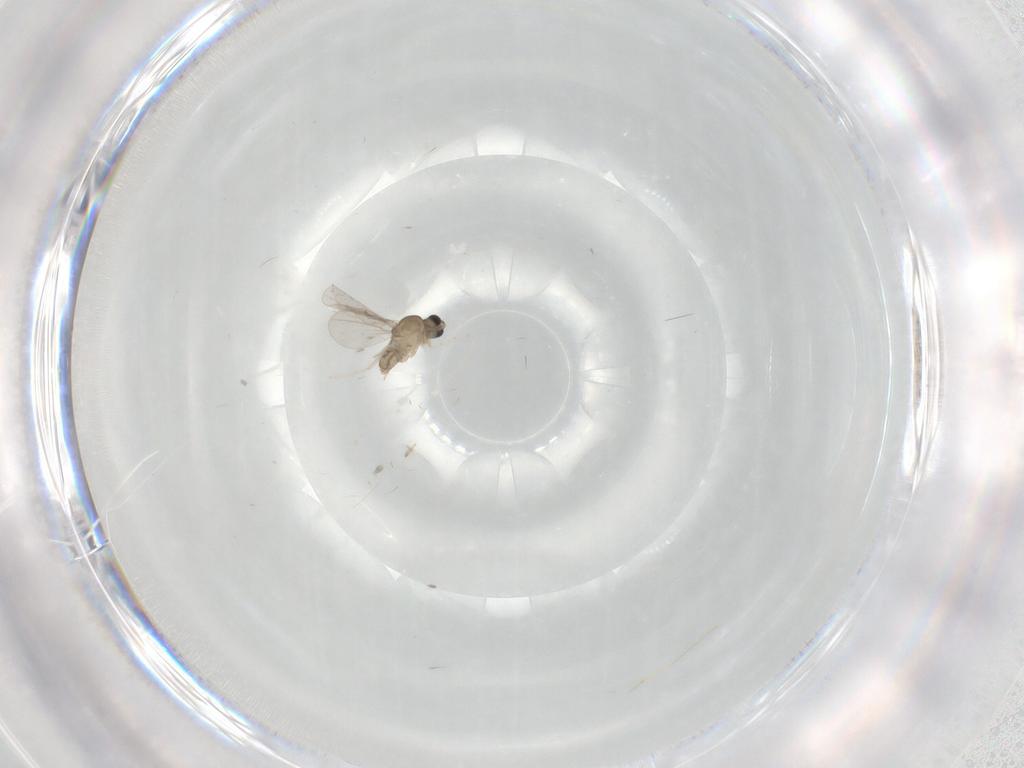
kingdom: Animalia
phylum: Arthropoda
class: Insecta
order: Diptera
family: Cecidomyiidae
